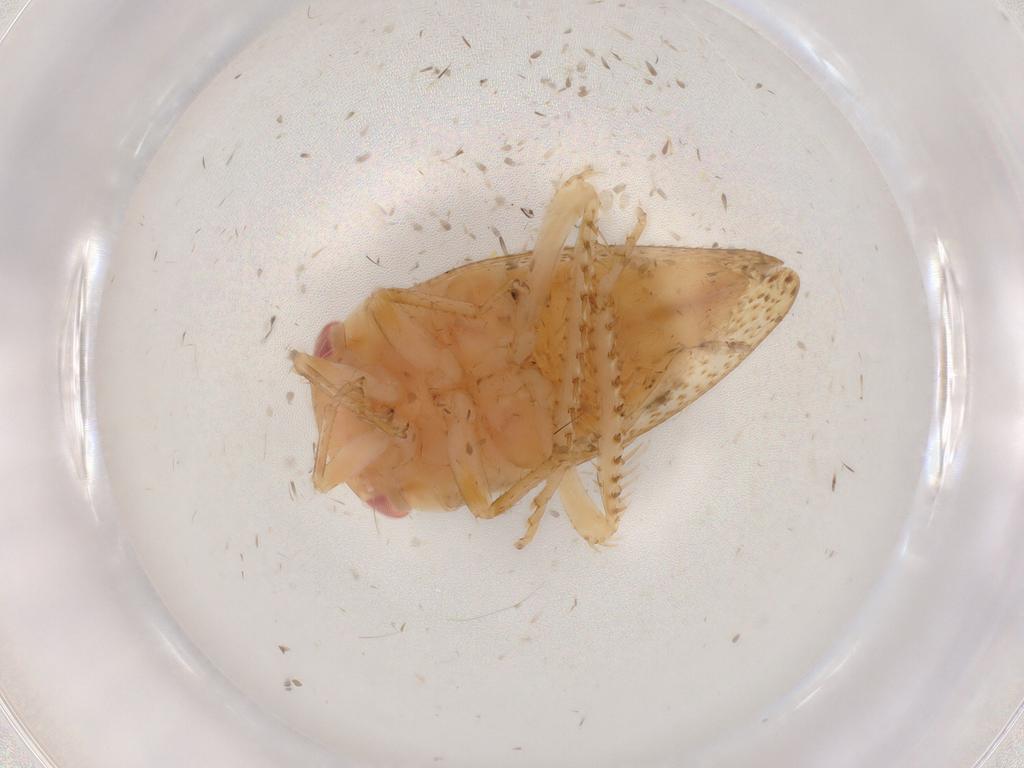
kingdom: Animalia
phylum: Arthropoda
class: Insecta
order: Hemiptera
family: Cicadellidae
